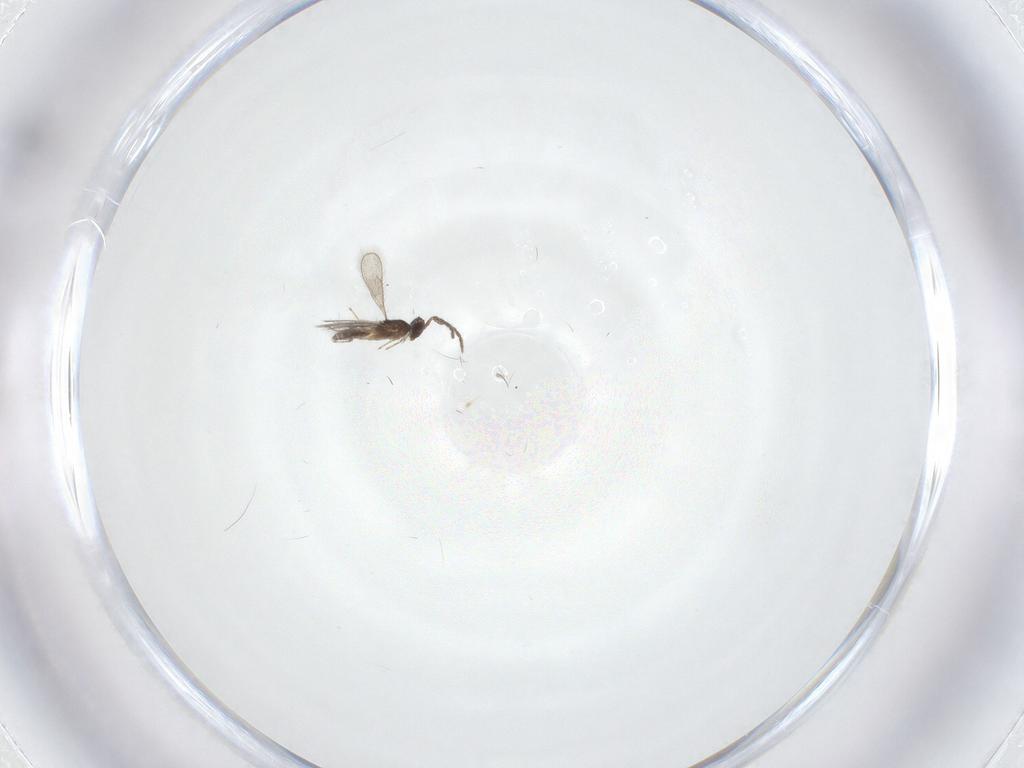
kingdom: Animalia
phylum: Arthropoda
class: Insecta
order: Hymenoptera
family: Eulophidae
